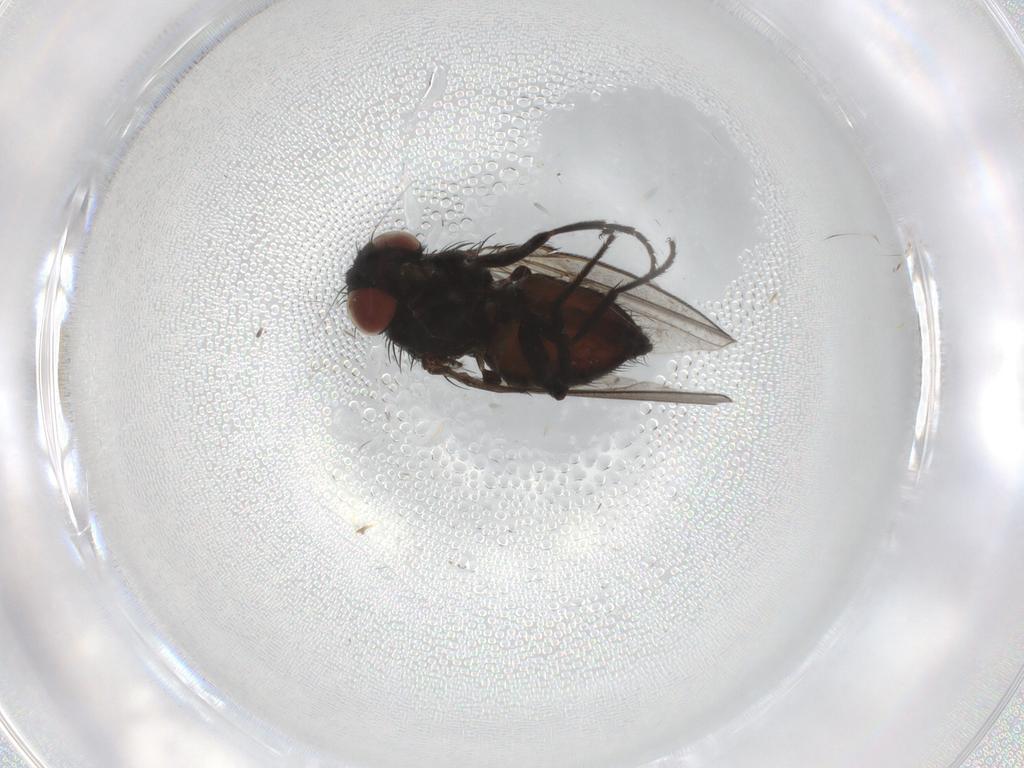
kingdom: Animalia
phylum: Arthropoda
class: Insecta
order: Diptera
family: Milichiidae
